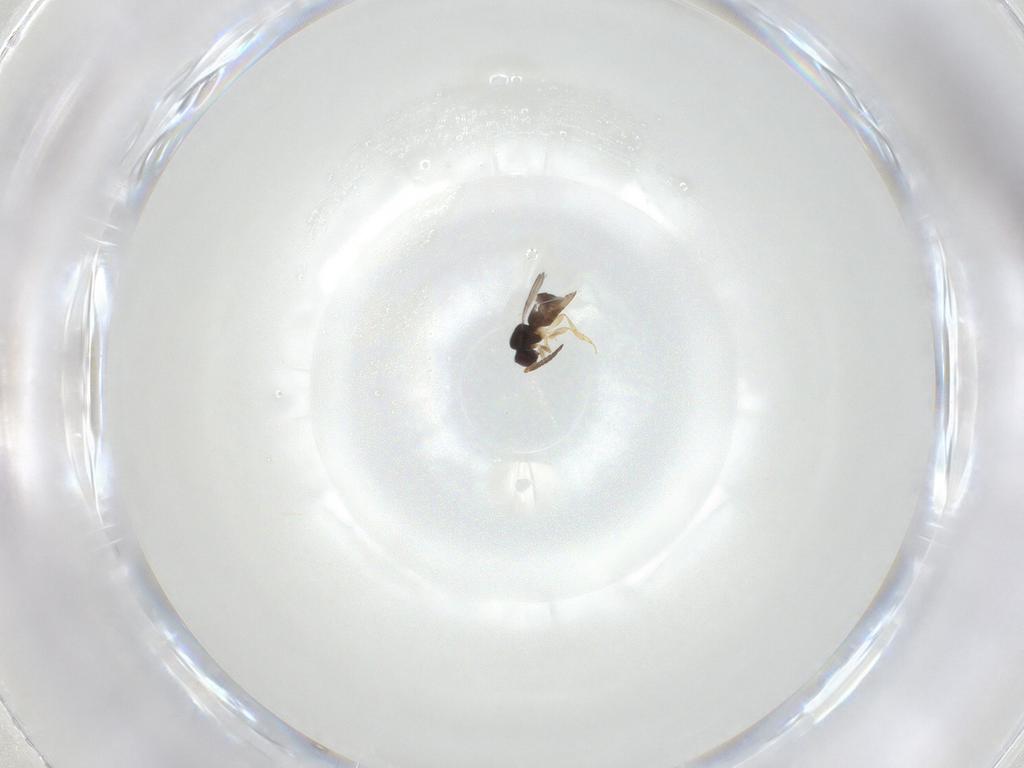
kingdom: Animalia
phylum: Arthropoda
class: Insecta
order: Hymenoptera
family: Ceraphronidae
